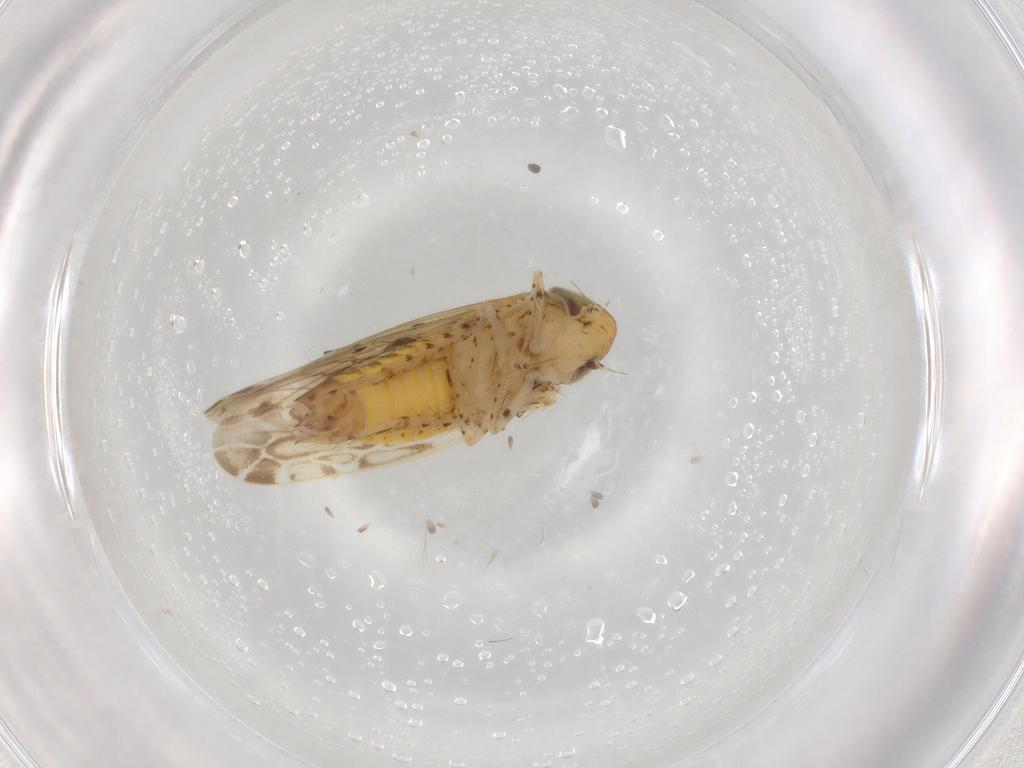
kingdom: Animalia
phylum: Arthropoda
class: Insecta
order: Hemiptera
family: Cicadellidae
